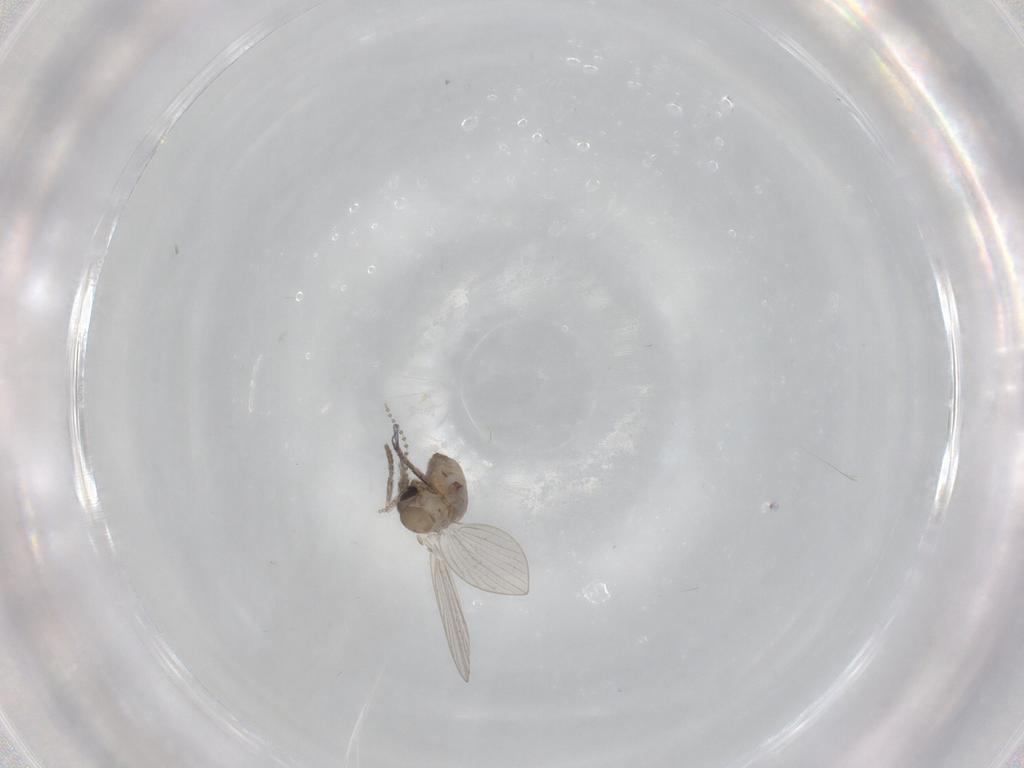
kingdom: Animalia
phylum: Arthropoda
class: Insecta
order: Diptera
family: Psychodidae
